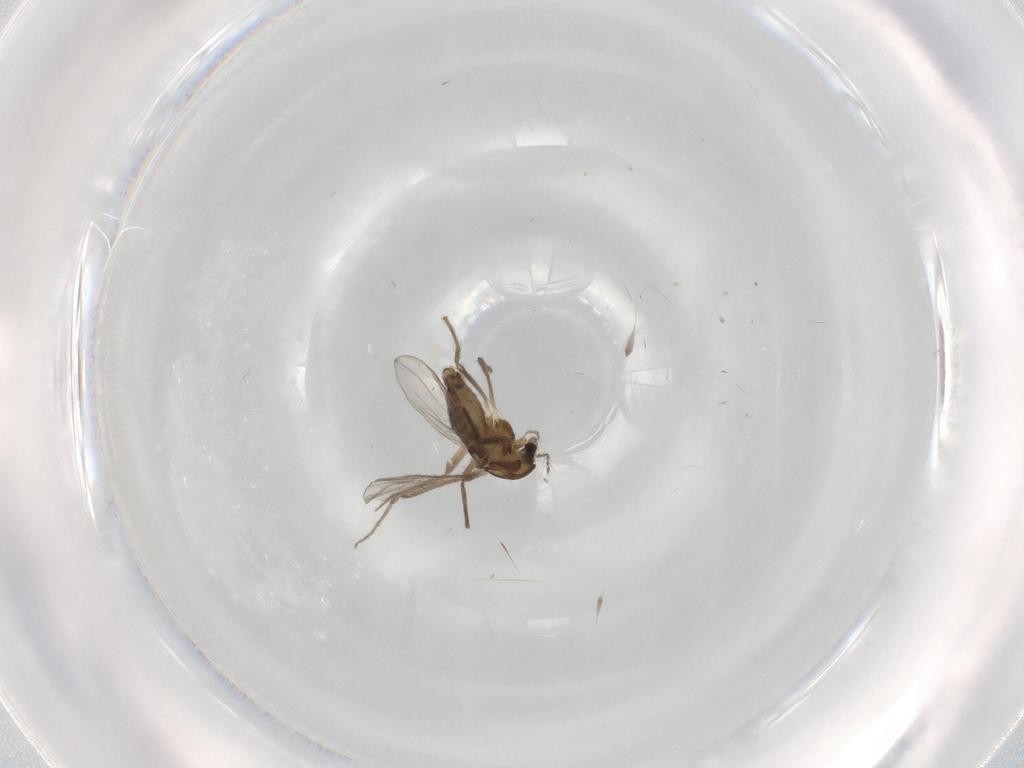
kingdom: Animalia
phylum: Arthropoda
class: Insecta
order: Diptera
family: Chironomidae
